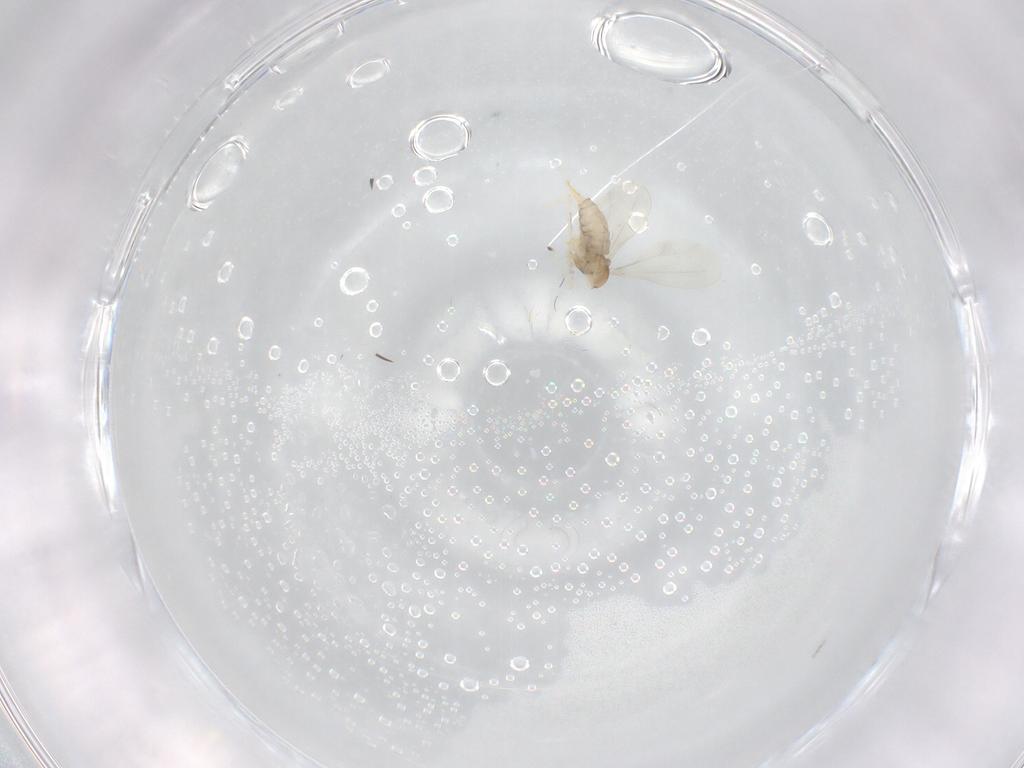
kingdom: Animalia
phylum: Arthropoda
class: Insecta
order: Diptera
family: Cecidomyiidae
